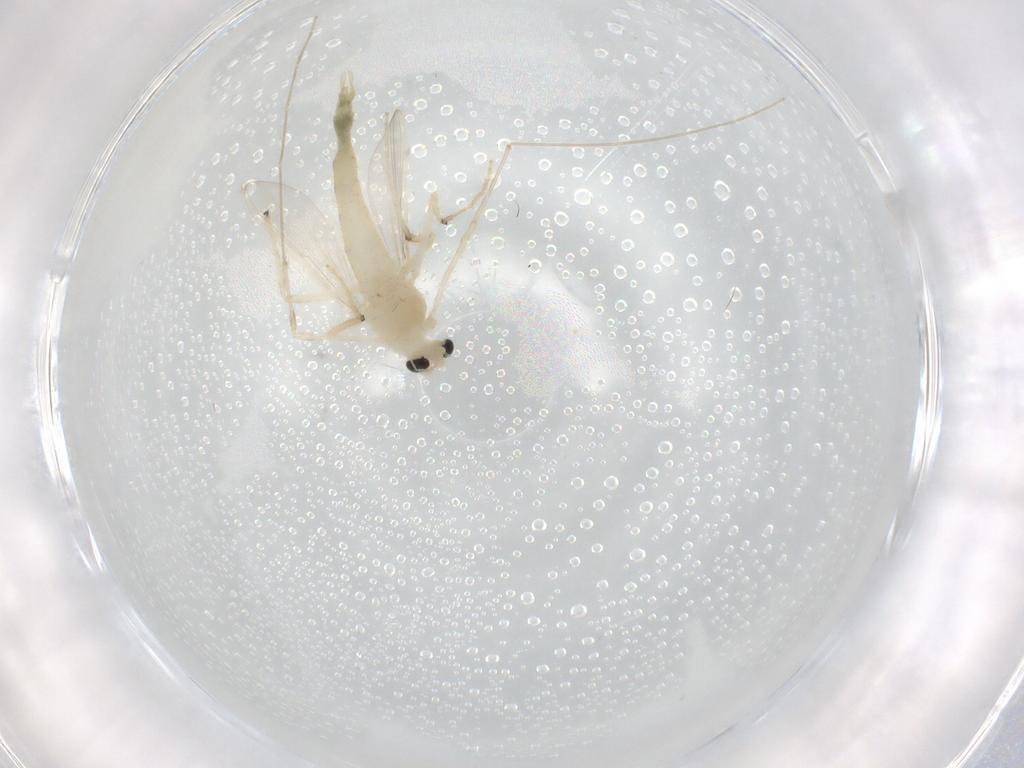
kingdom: Animalia
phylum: Arthropoda
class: Insecta
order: Diptera
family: Chironomidae
